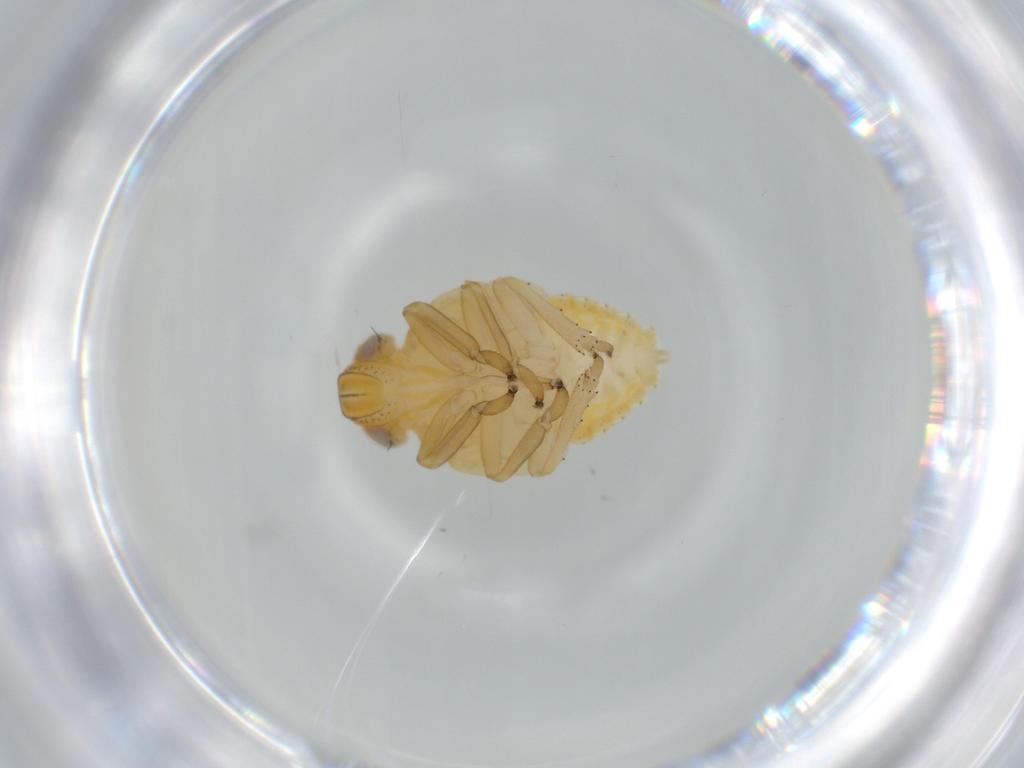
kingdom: Animalia
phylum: Arthropoda
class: Insecta
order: Hemiptera
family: Issidae
